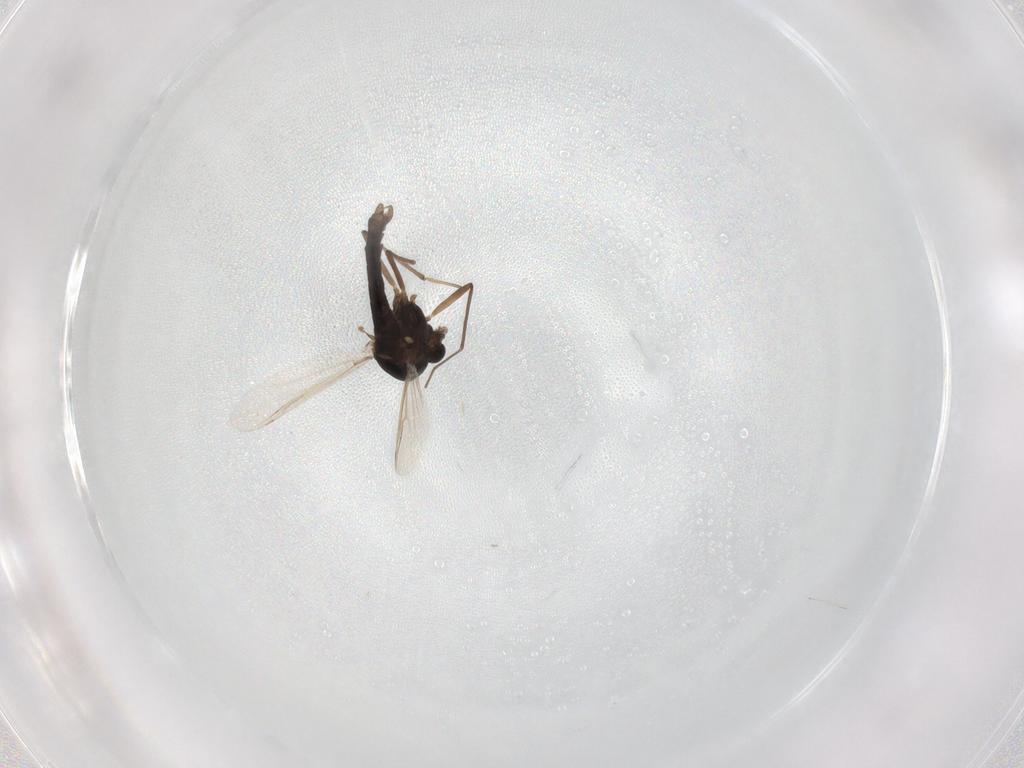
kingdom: Animalia
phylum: Arthropoda
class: Insecta
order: Diptera
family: Chironomidae
